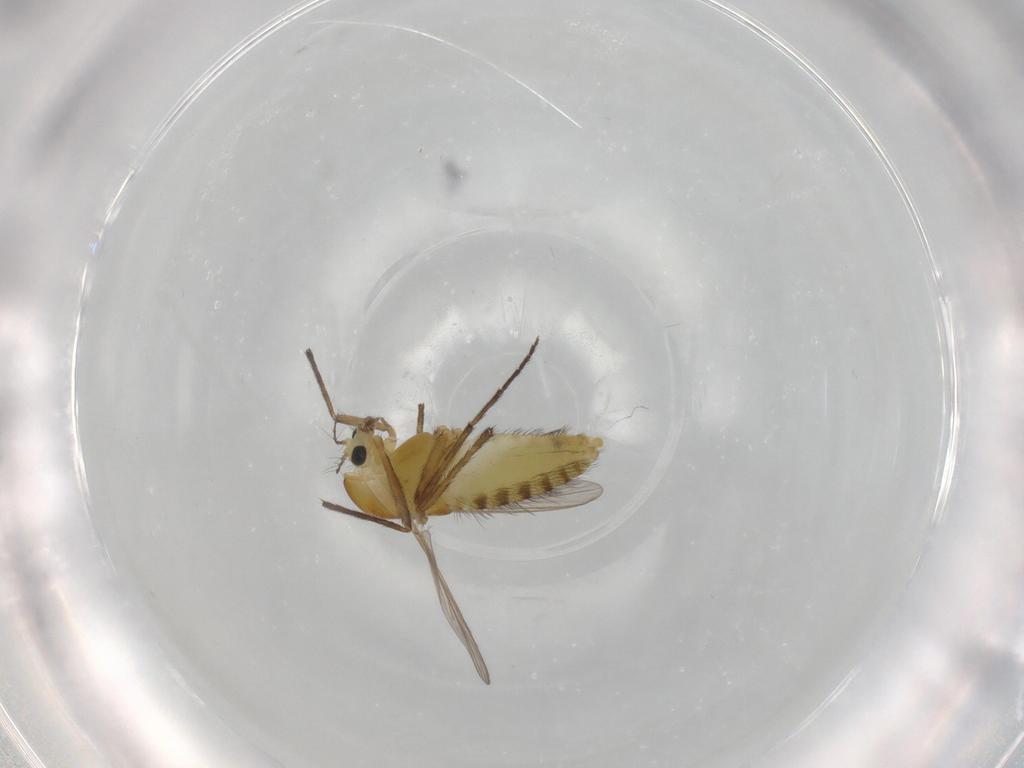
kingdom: Animalia
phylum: Arthropoda
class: Insecta
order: Diptera
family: Chironomidae
